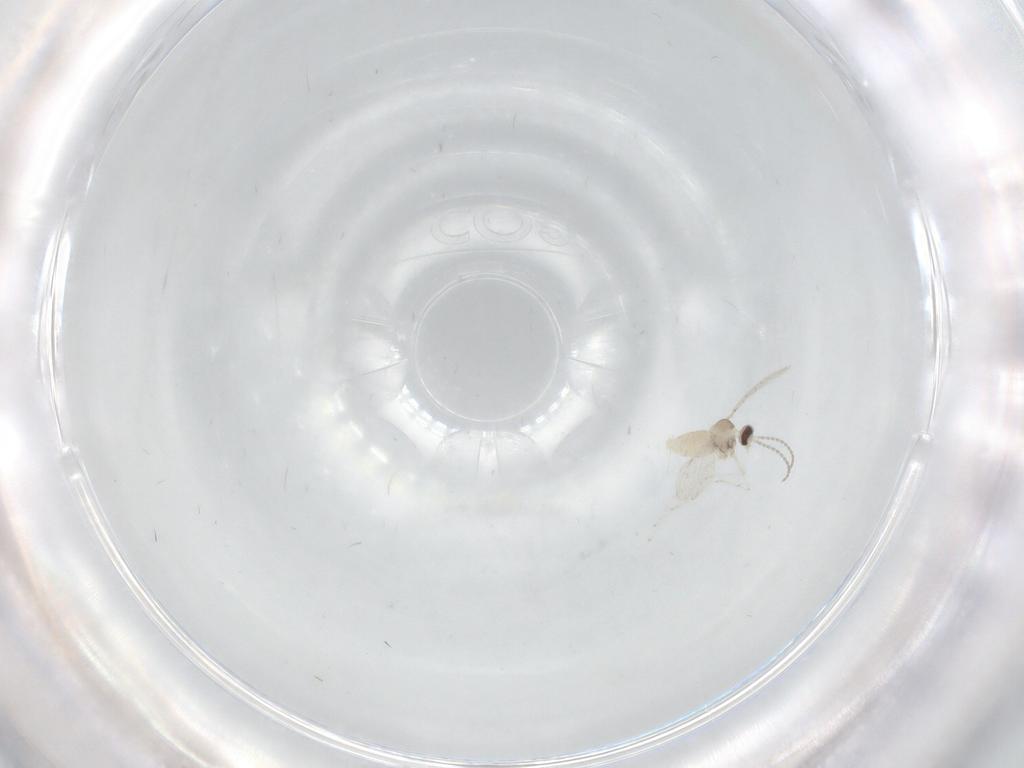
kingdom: Animalia
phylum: Arthropoda
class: Insecta
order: Diptera
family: Cecidomyiidae
